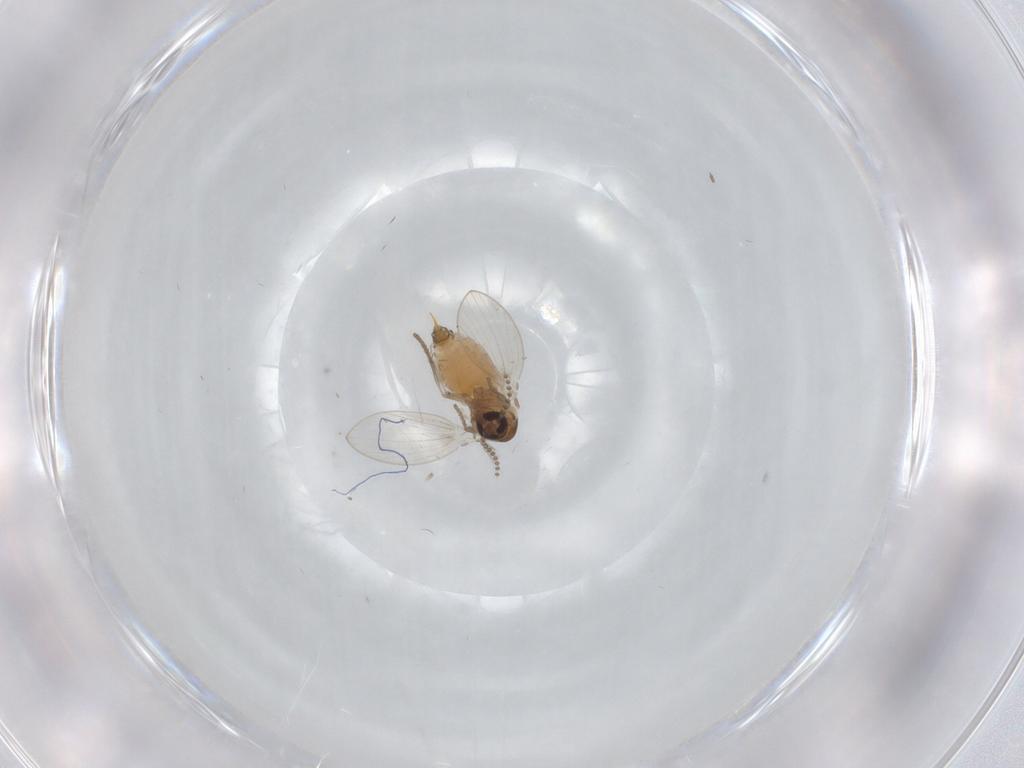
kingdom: Animalia
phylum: Arthropoda
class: Insecta
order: Diptera
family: Psychodidae
